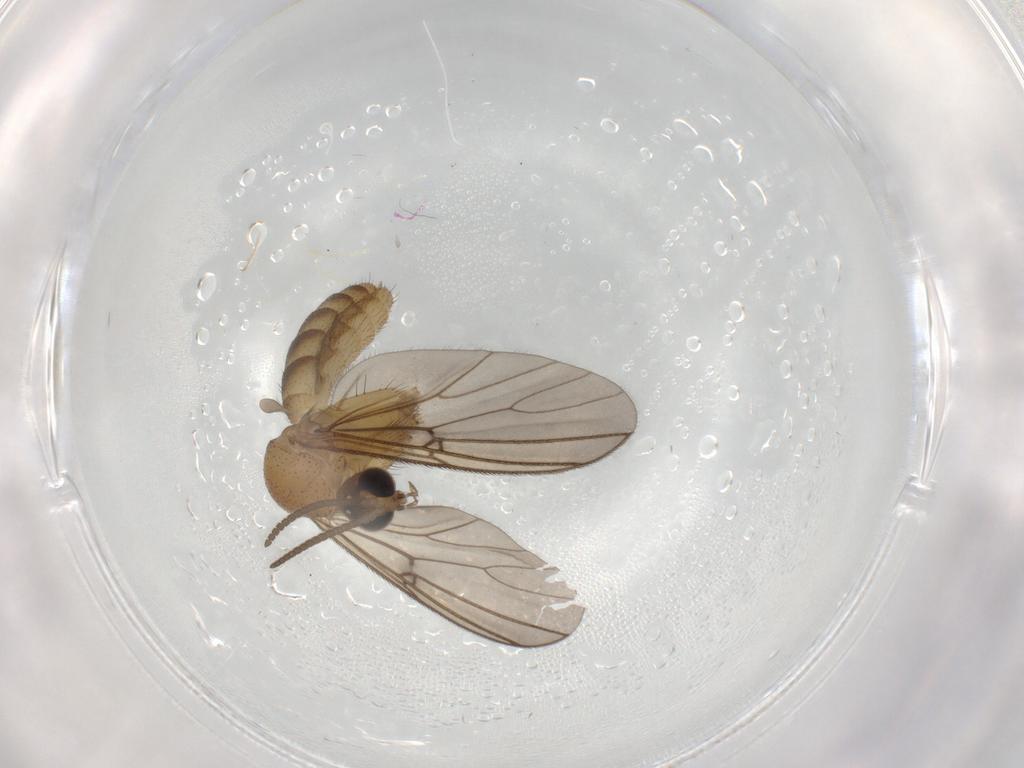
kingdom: Animalia
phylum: Arthropoda
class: Insecta
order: Diptera
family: Mycetophilidae
